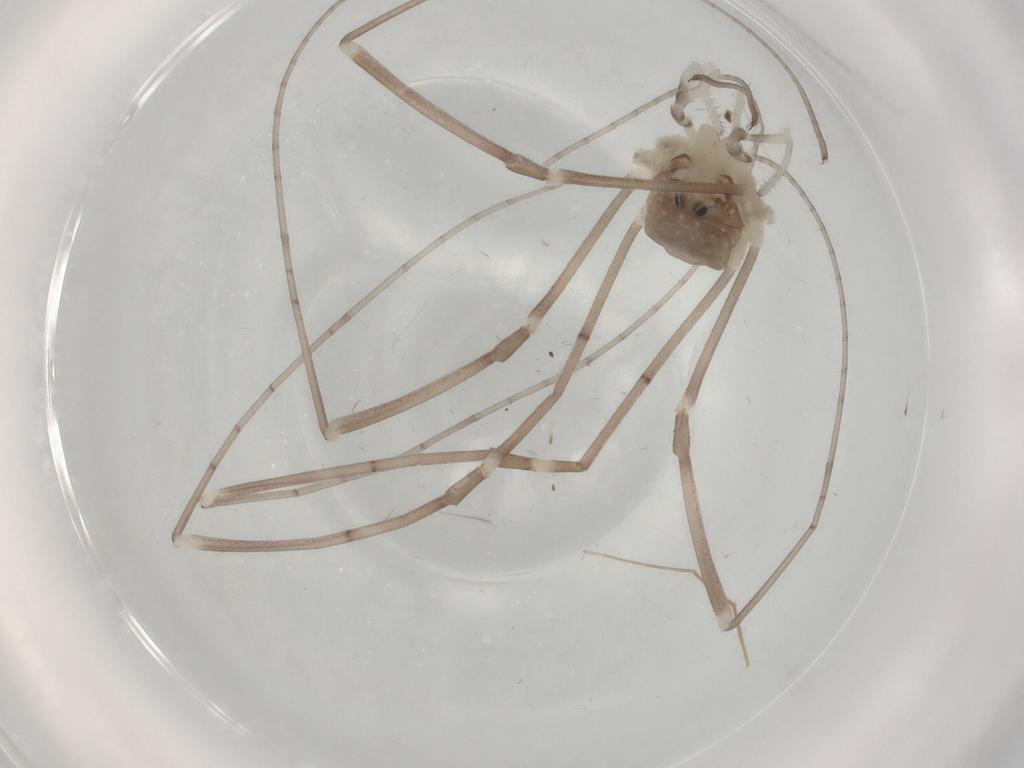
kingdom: Animalia
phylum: Arthropoda
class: Arachnida
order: Opiliones
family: Sclerosomatidae
